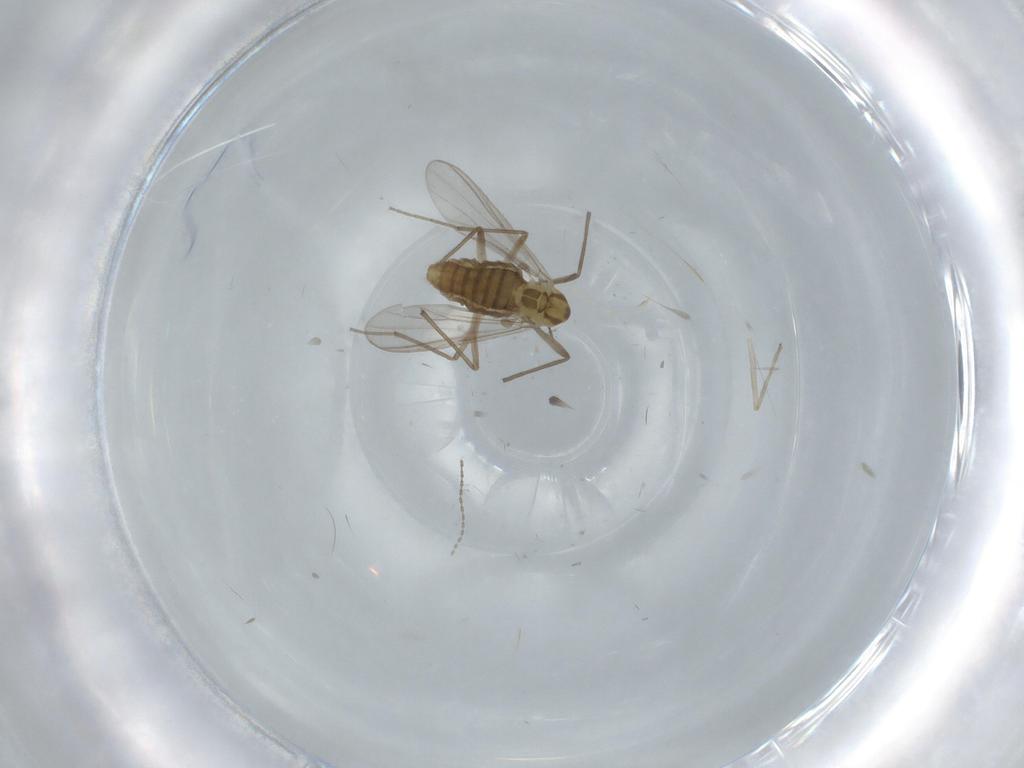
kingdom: Animalia
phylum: Arthropoda
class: Insecta
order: Diptera
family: Chironomidae
